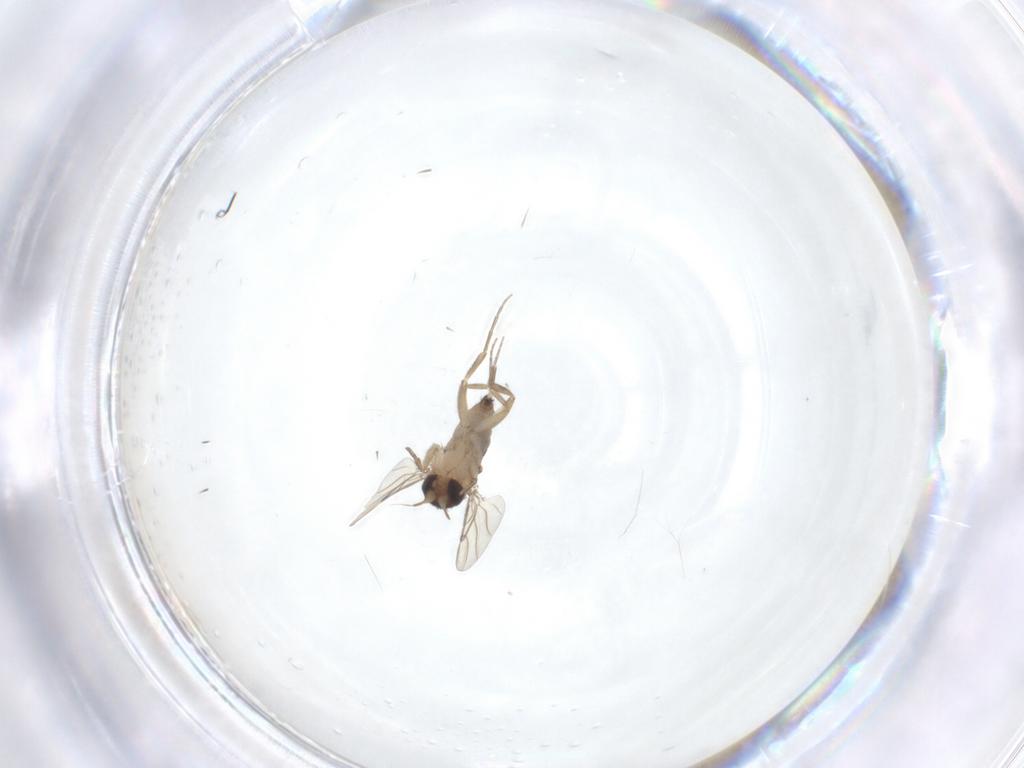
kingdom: Animalia
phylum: Arthropoda
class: Insecta
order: Diptera
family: Phoridae
